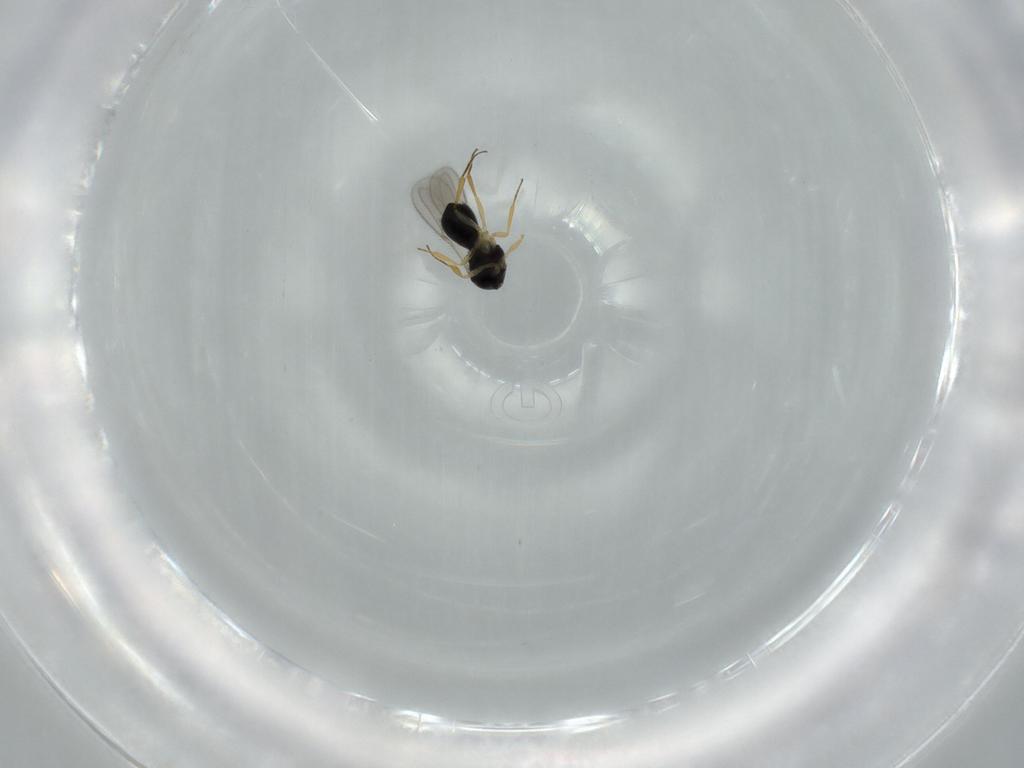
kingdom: Animalia
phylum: Arthropoda
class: Insecta
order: Hymenoptera
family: Scelionidae
